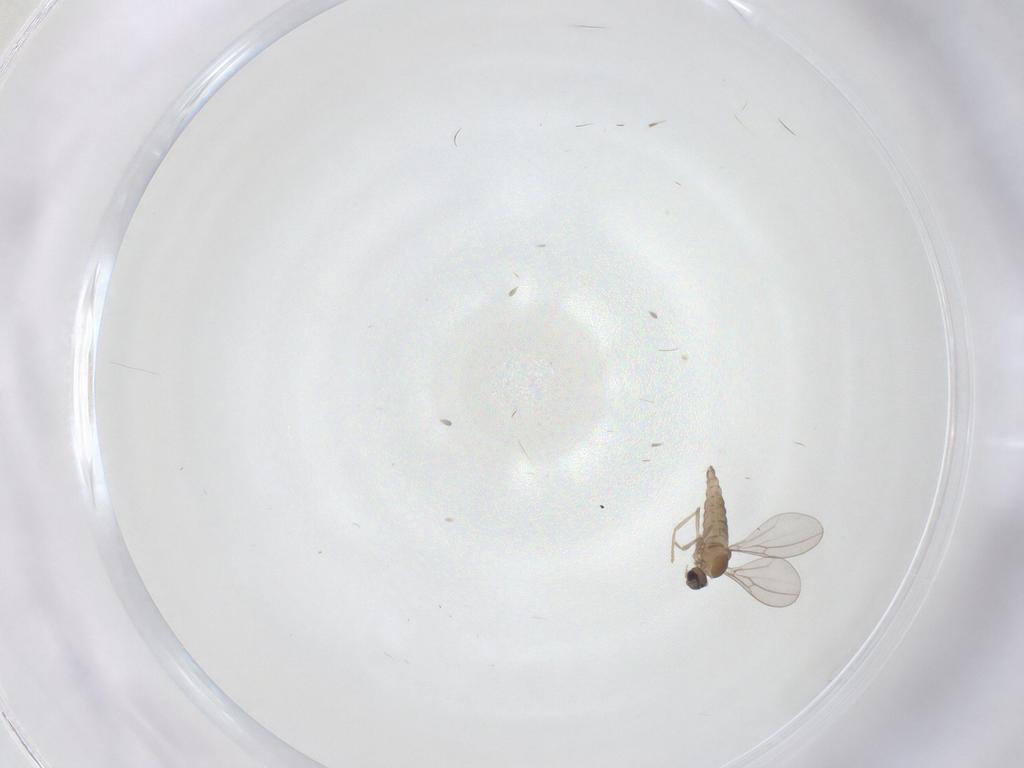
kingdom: Animalia
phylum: Arthropoda
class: Insecta
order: Diptera
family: Cecidomyiidae
